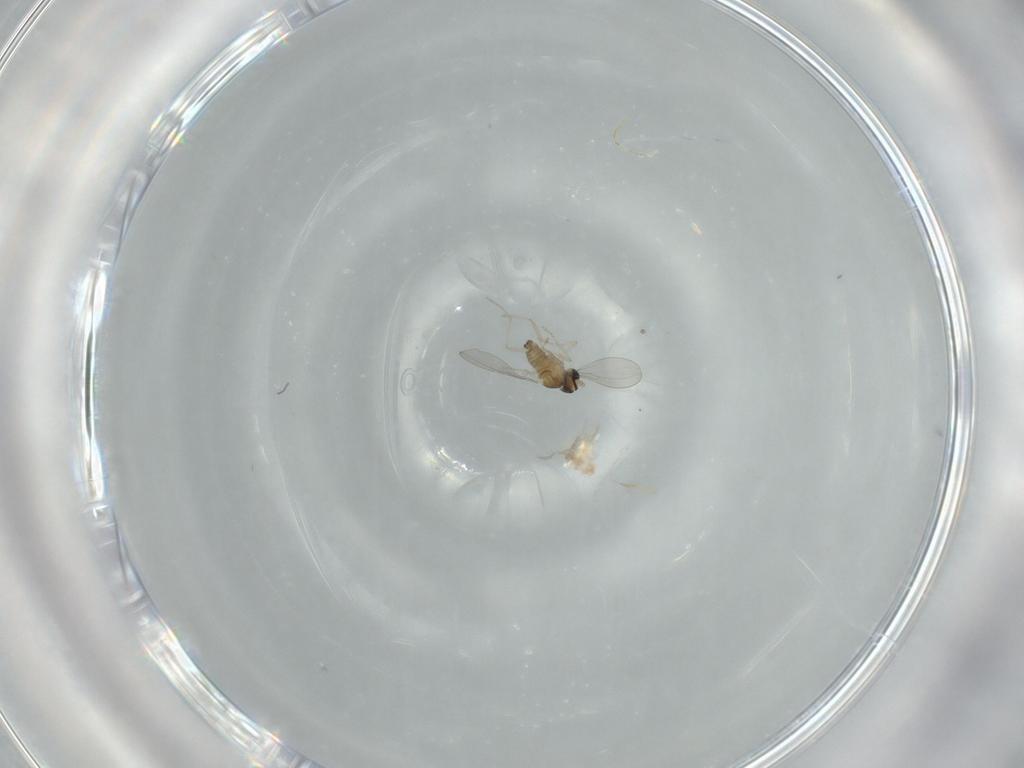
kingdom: Animalia
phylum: Arthropoda
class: Insecta
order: Diptera
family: Cecidomyiidae
